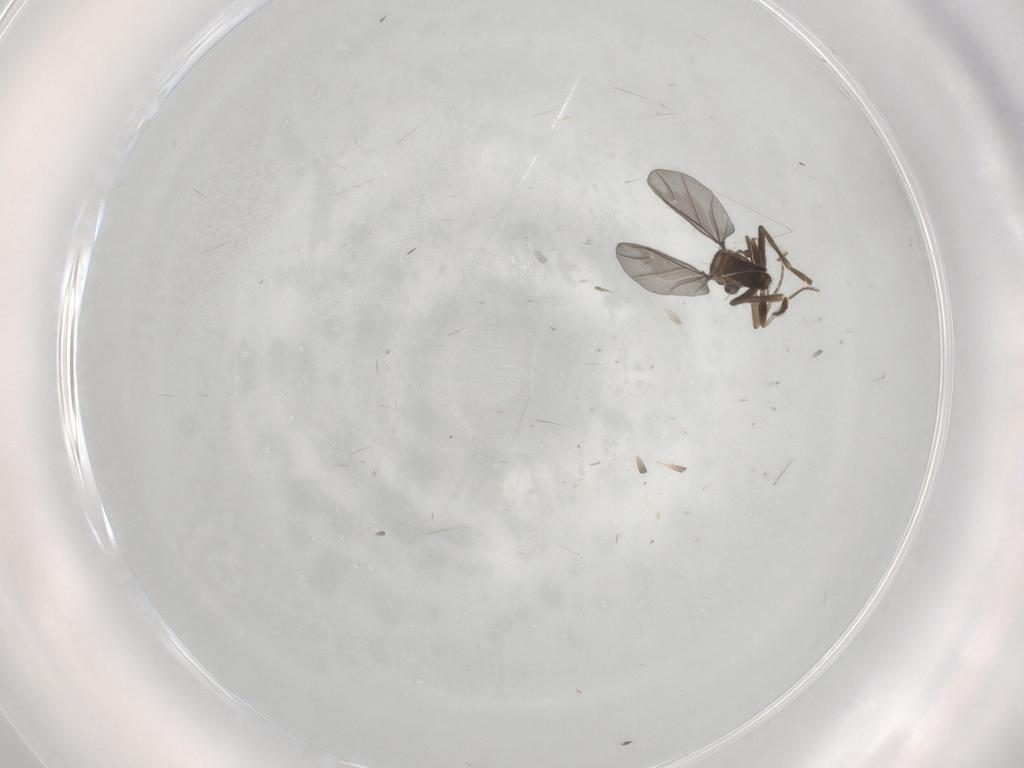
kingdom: Animalia
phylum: Arthropoda
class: Insecta
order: Diptera
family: Phoridae
